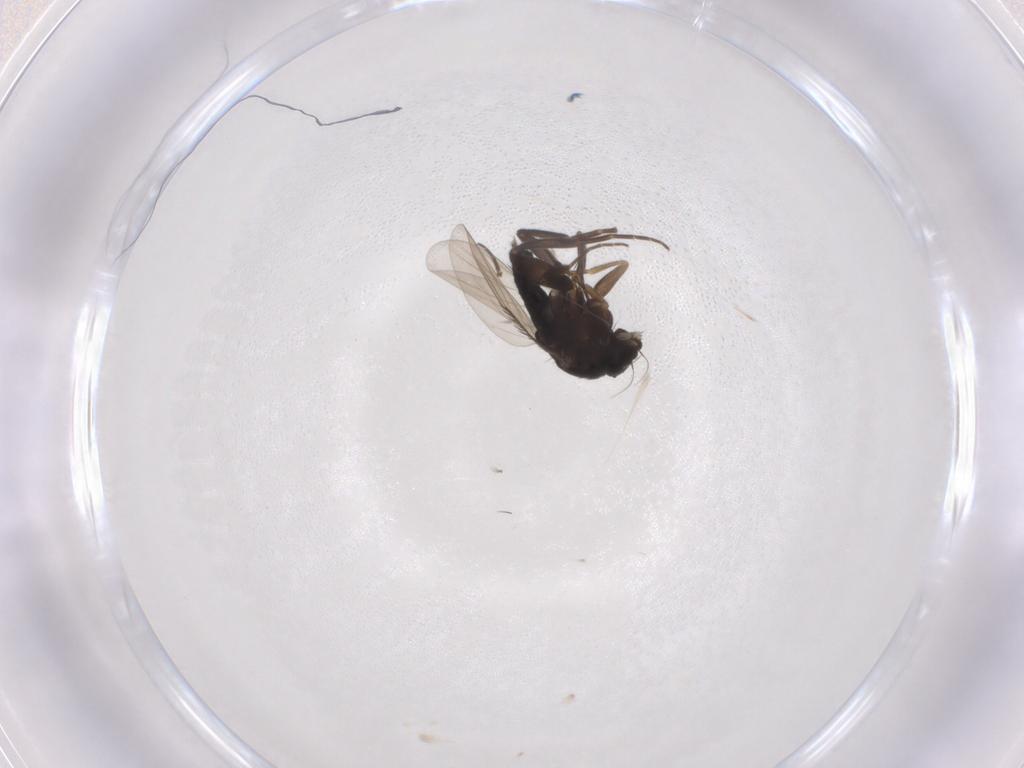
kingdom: Animalia
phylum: Arthropoda
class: Insecta
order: Diptera
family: Phoridae
